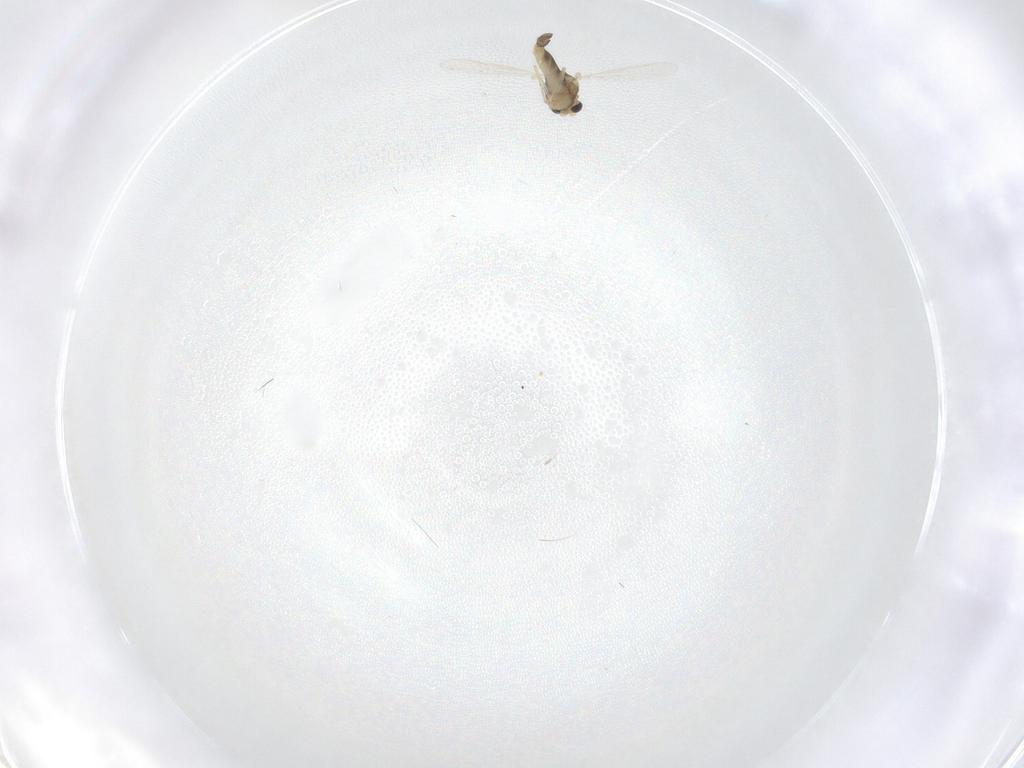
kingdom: Animalia
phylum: Arthropoda
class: Insecta
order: Diptera
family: Chironomidae
